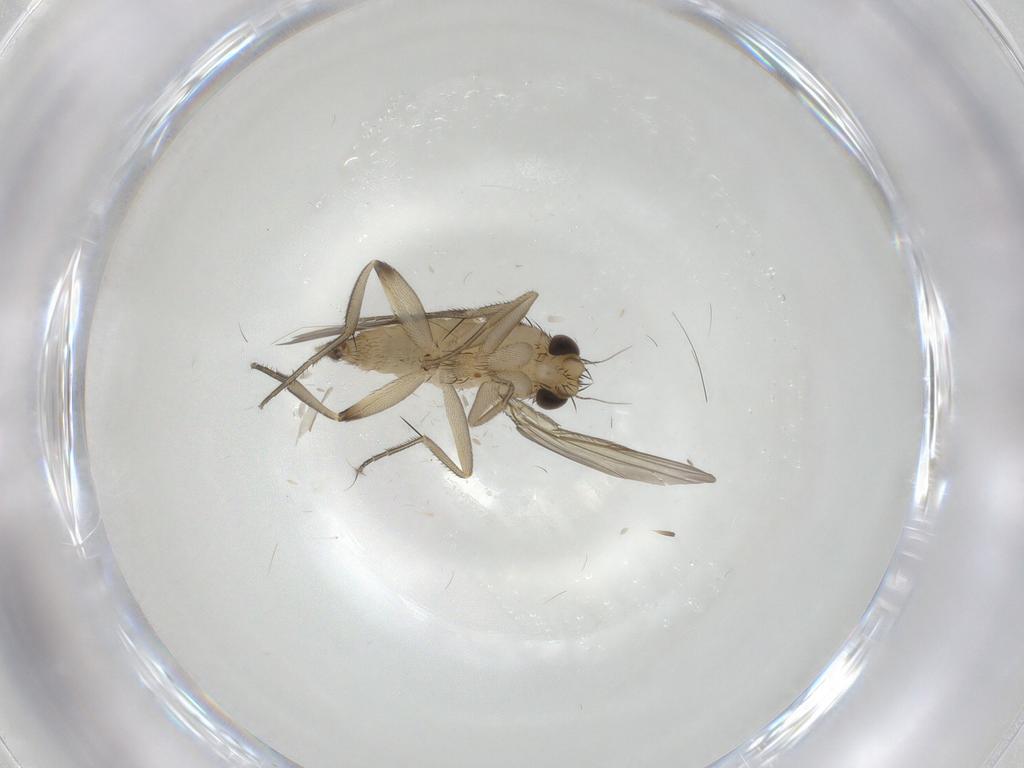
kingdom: Animalia
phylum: Arthropoda
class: Insecta
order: Diptera
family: Phoridae
